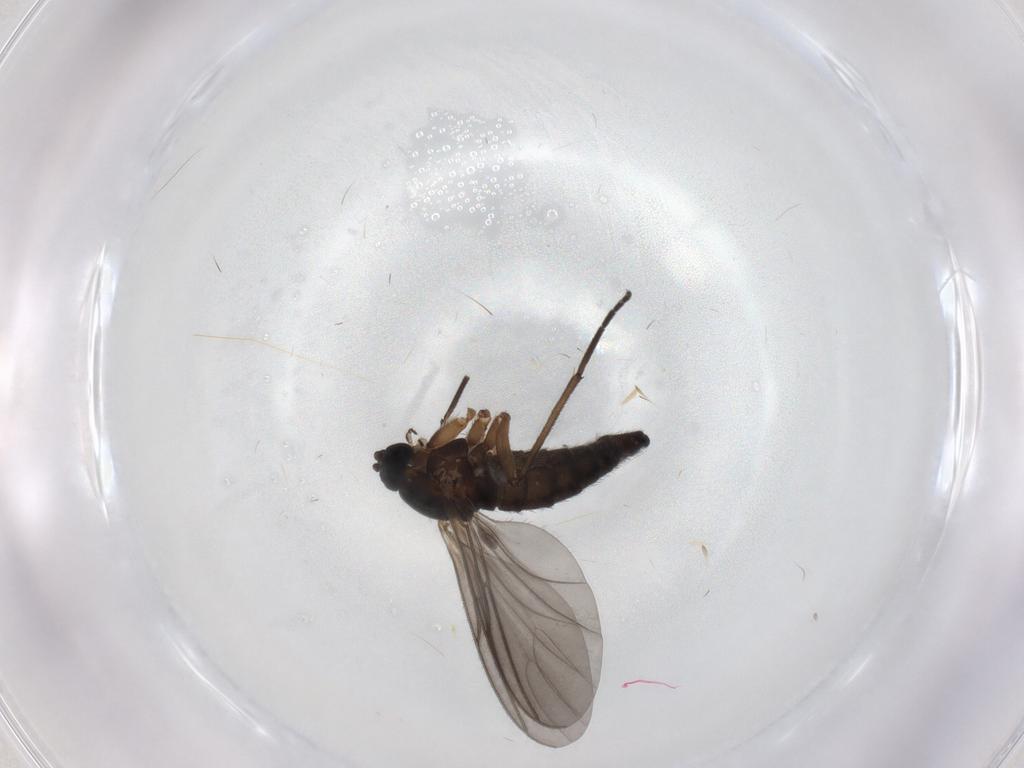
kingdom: Animalia
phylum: Arthropoda
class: Insecta
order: Diptera
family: Sciaridae
